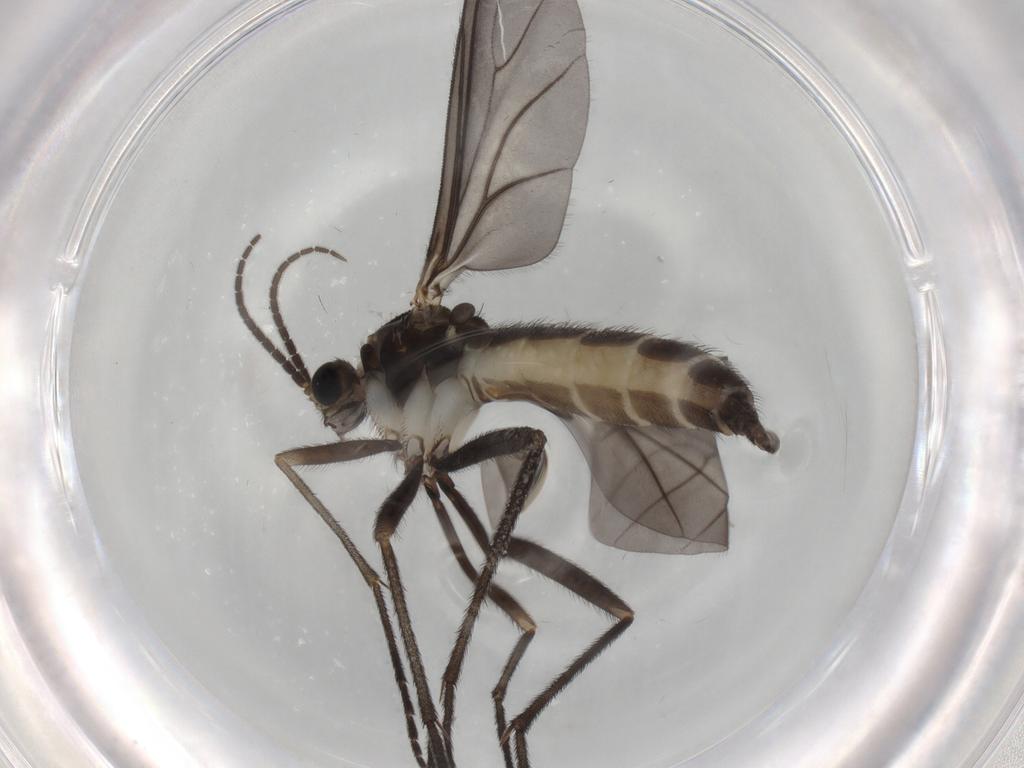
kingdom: Animalia
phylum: Arthropoda
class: Insecta
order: Diptera
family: Sciaridae
